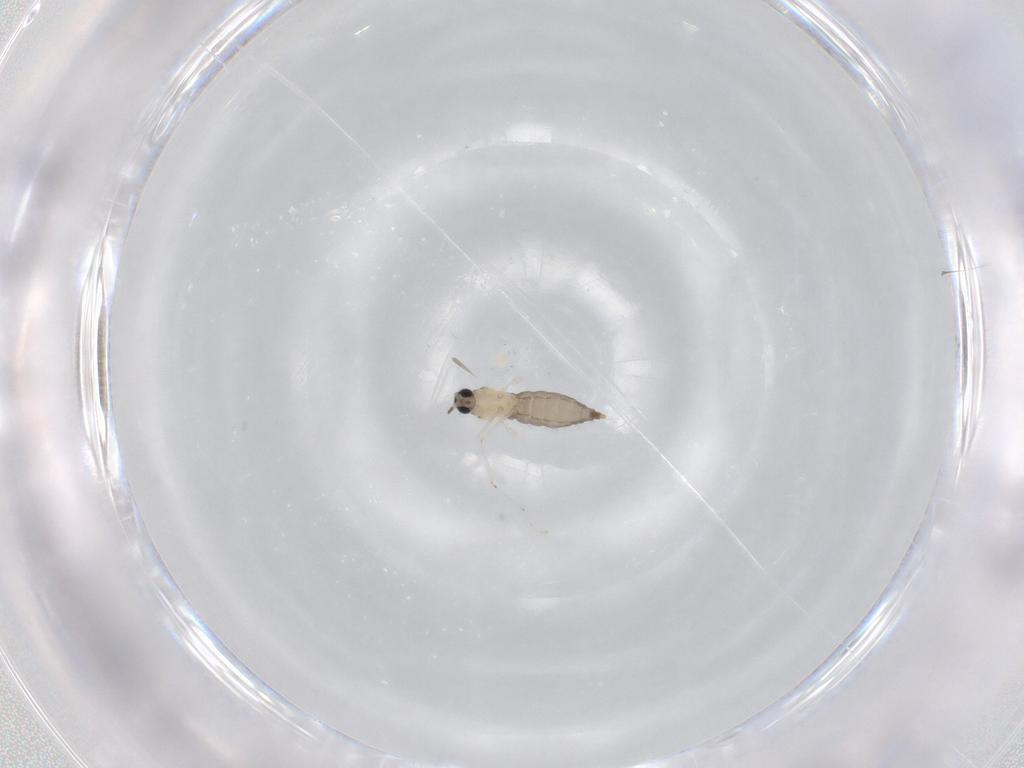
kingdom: Animalia
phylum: Arthropoda
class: Insecta
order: Diptera
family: Cecidomyiidae
